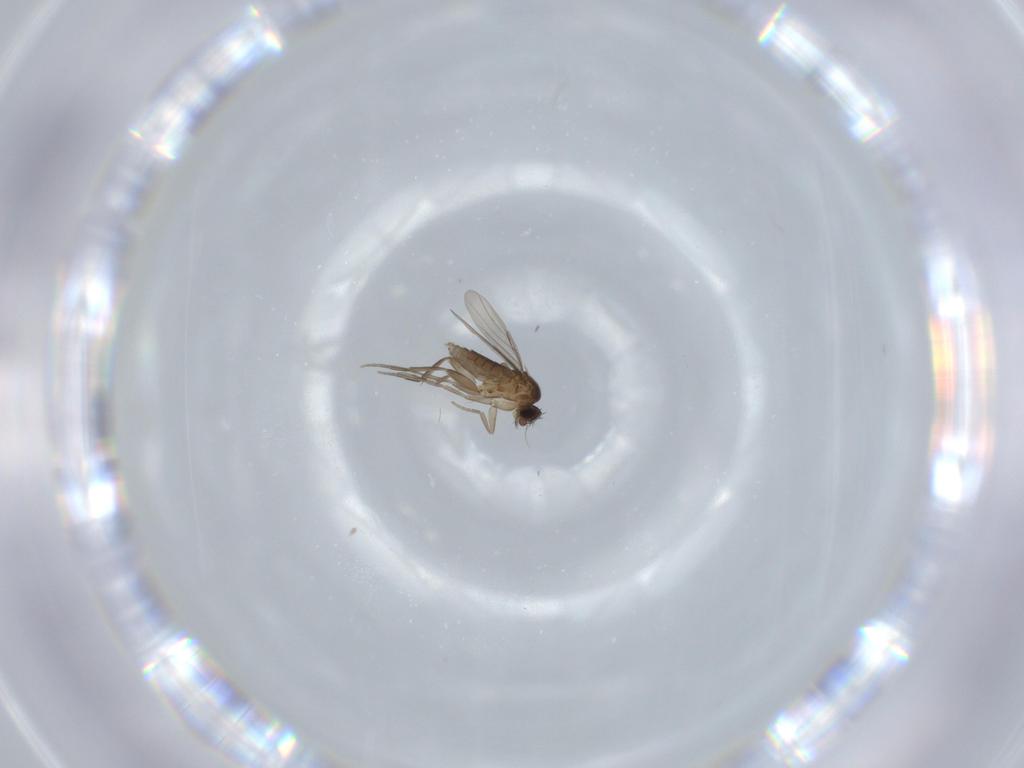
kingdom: Animalia
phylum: Arthropoda
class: Insecta
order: Diptera
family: Phoridae
